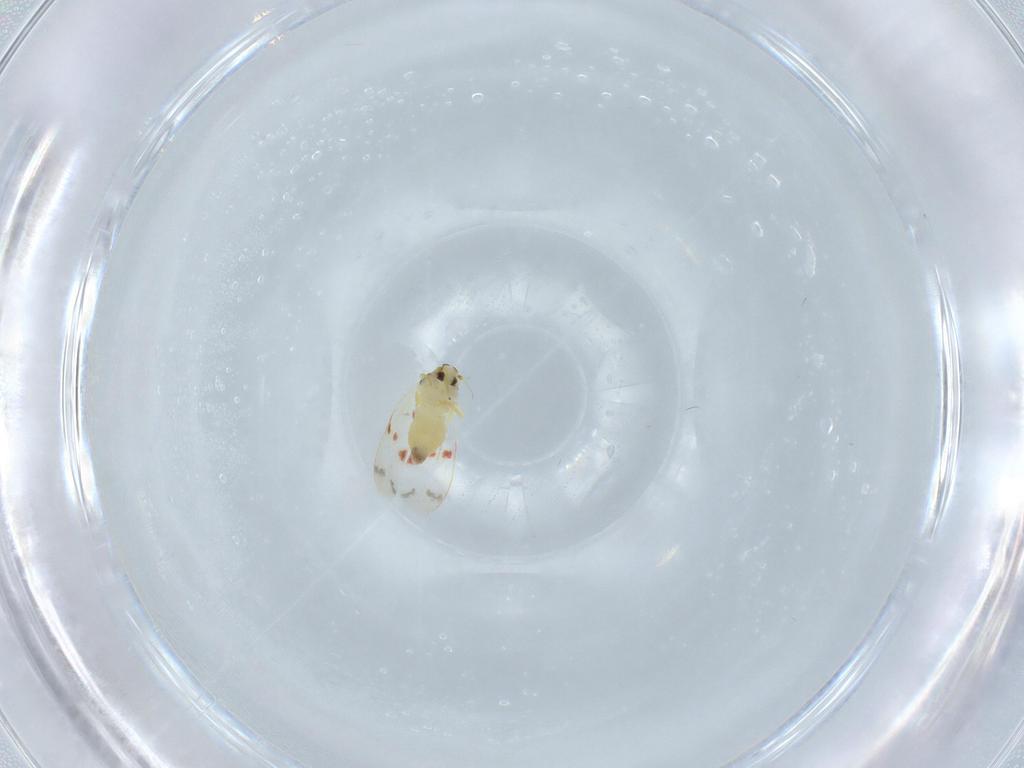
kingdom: Animalia
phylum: Arthropoda
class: Insecta
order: Hemiptera
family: Aleyrodidae
